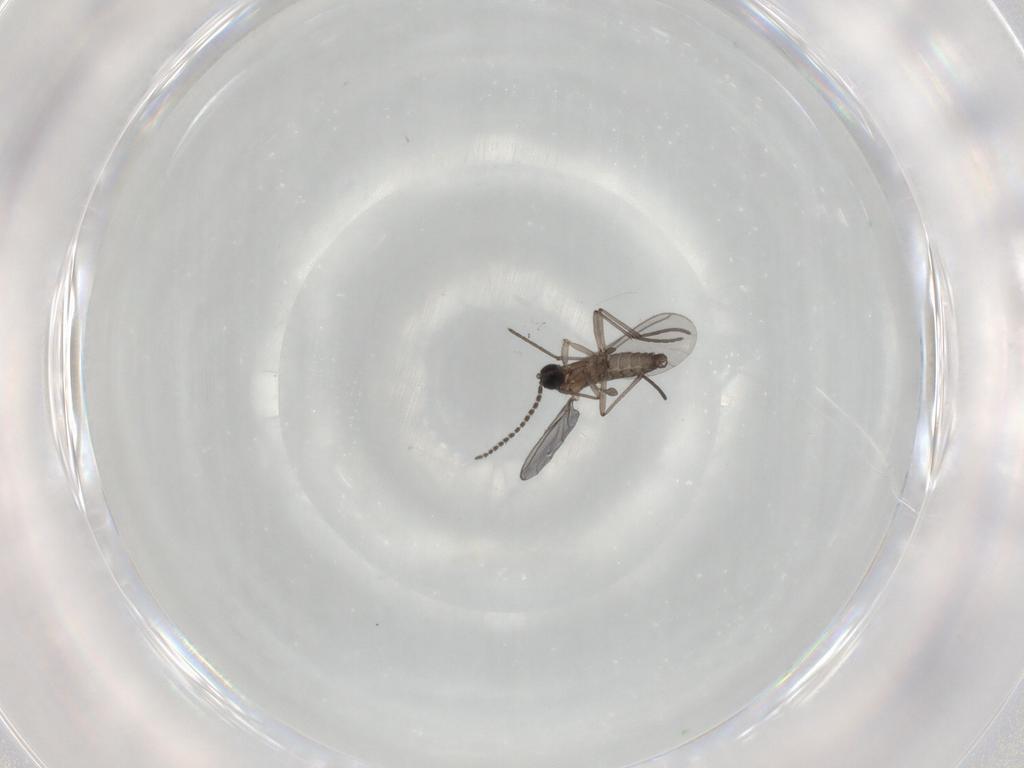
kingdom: Animalia
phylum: Arthropoda
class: Insecta
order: Diptera
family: Sciaridae
